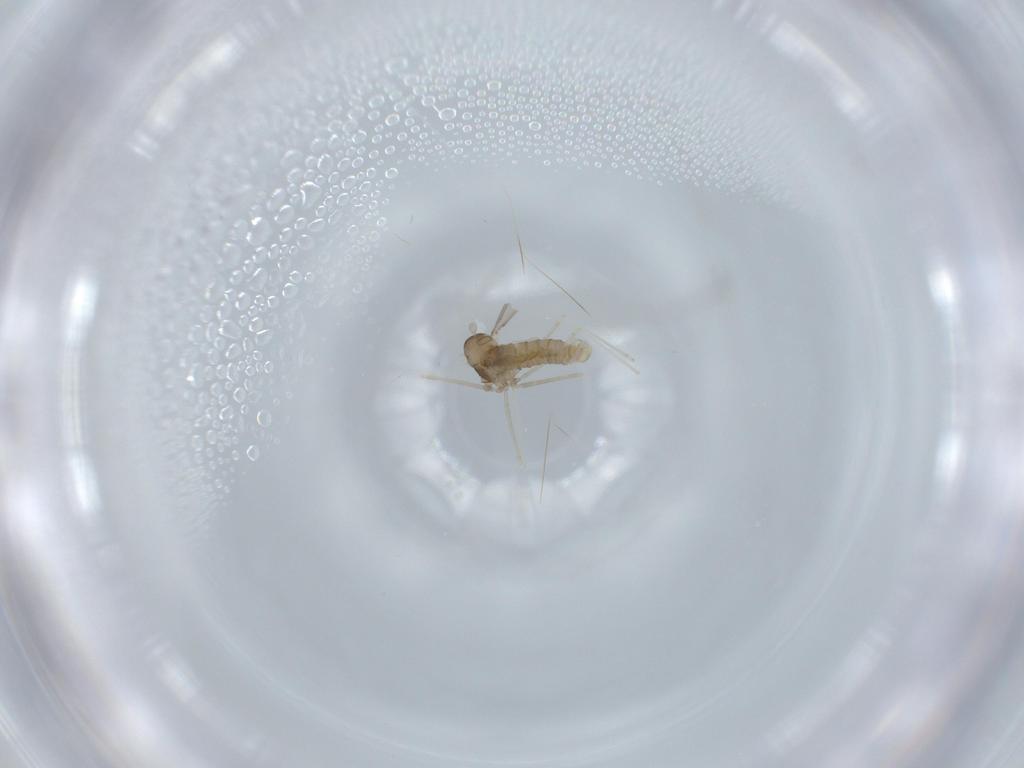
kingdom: Animalia
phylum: Arthropoda
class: Insecta
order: Diptera
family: Cecidomyiidae
